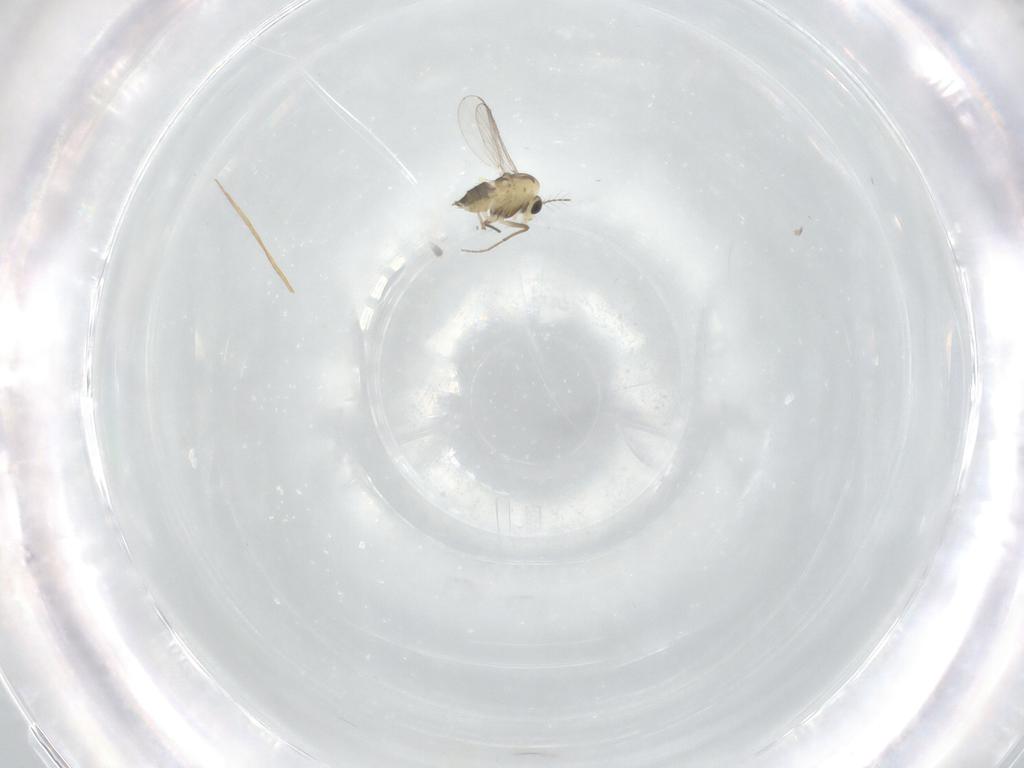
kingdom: Animalia
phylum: Arthropoda
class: Insecta
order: Diptera
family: Chironomidae
